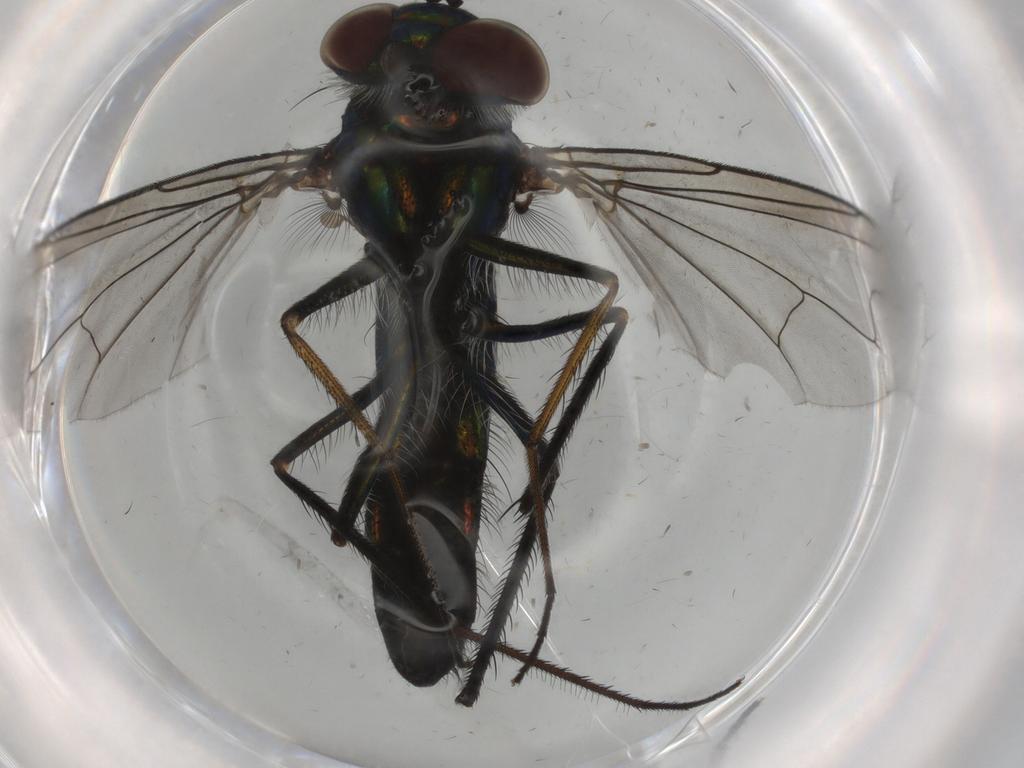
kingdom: Animalia
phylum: Arthropoda
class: Insecta
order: Diptera
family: Dolichopodidae
